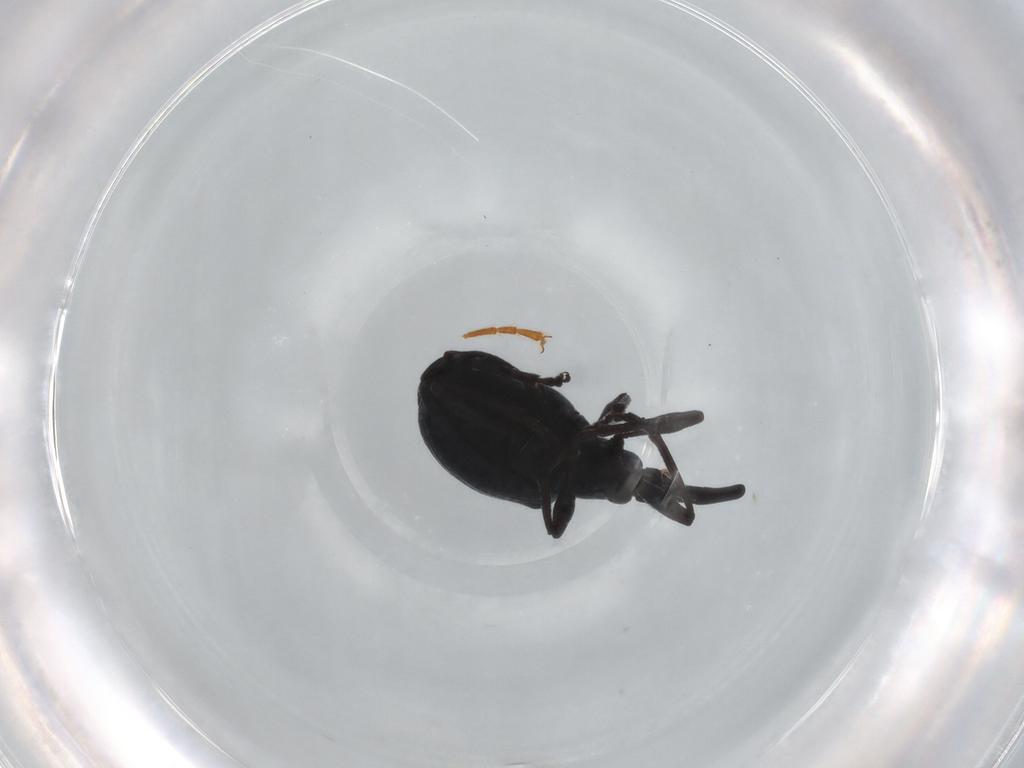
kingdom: Animalia
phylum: Arthropoda
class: Insecta
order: Coleoptera
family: Apionidae
